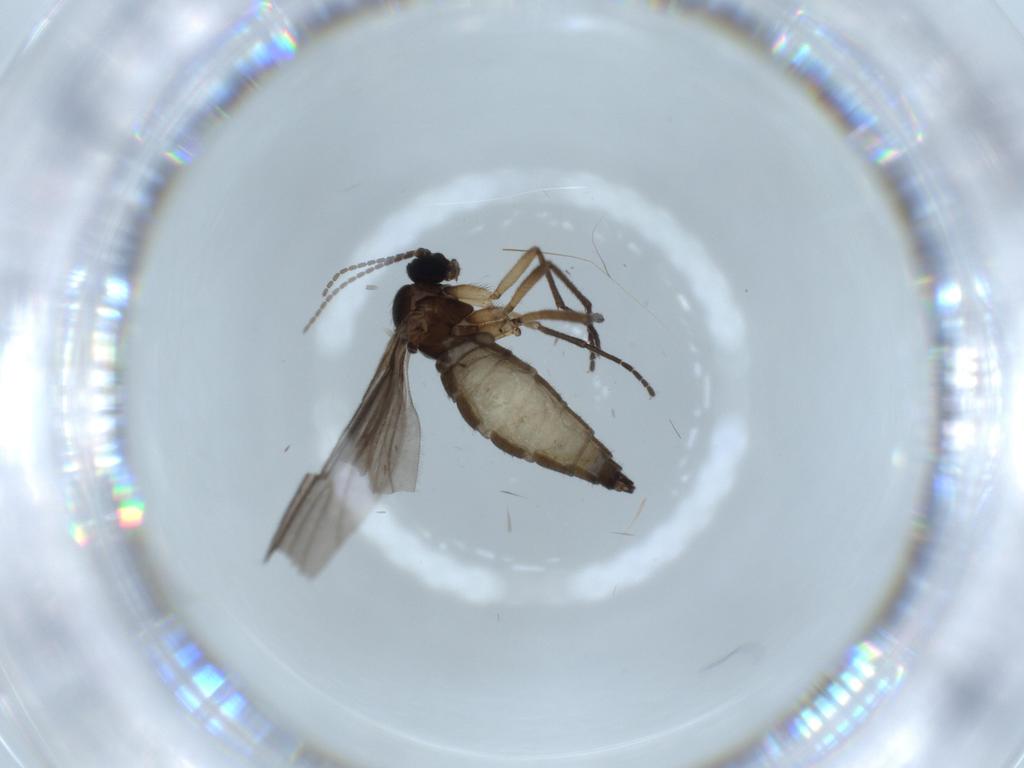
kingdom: Animalia
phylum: Arthropoda
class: Insecta
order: Diptera
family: Sciaridae
